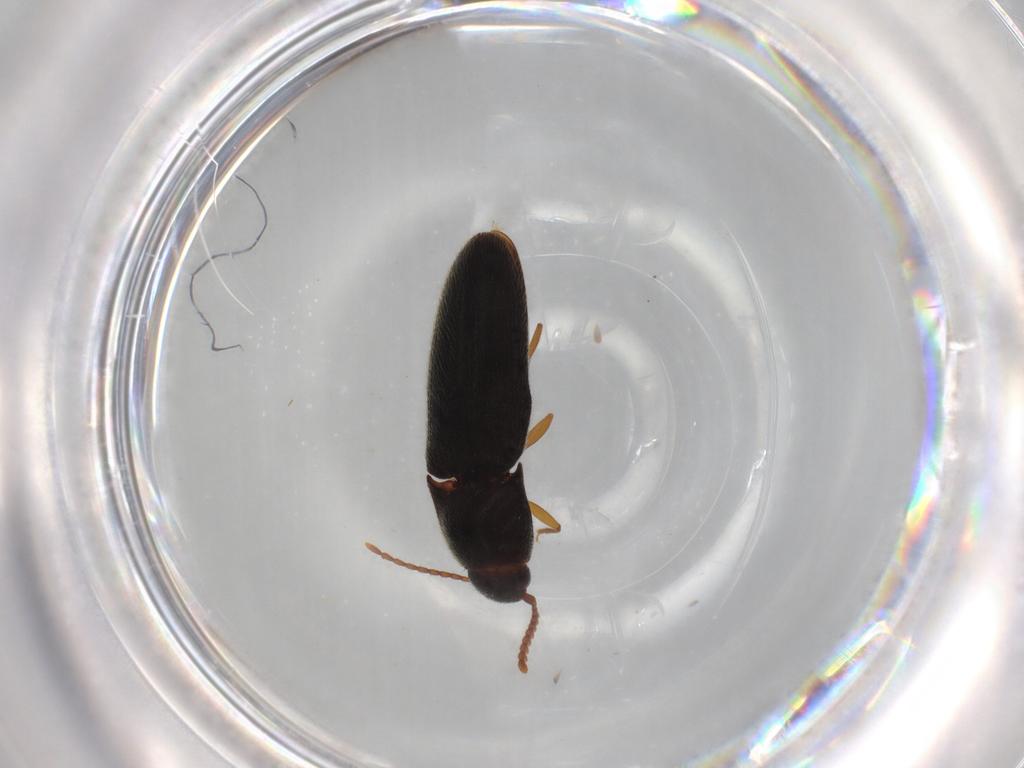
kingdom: Animalia
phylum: Arthropoda
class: Insecta
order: Coleoptera
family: Elateridae
